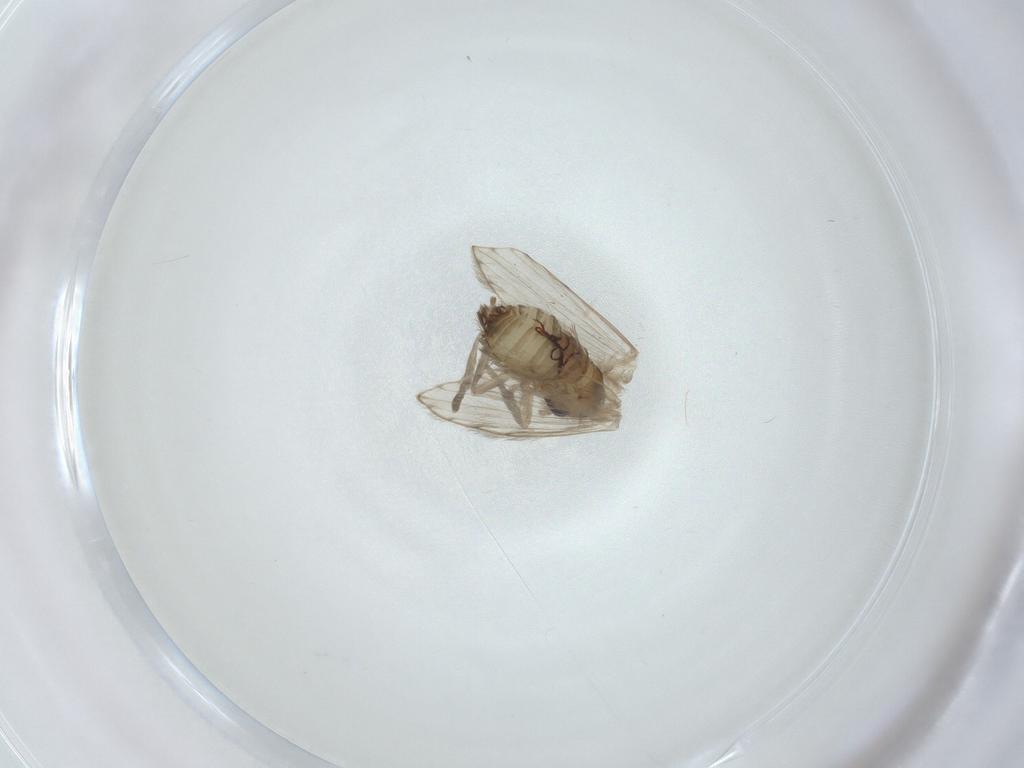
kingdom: Animalia
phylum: Arthropoda
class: Insecta
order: Diptera
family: Psychodidae
